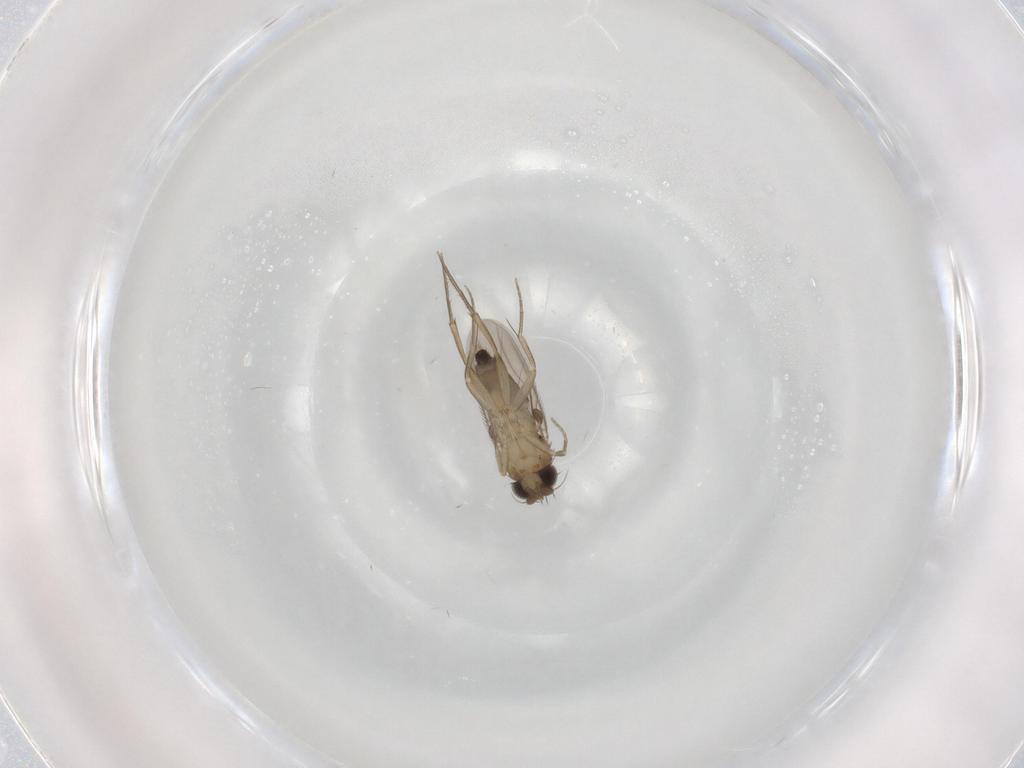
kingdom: Animalia
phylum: Arthropoda
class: Insecta
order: Diptera
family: Phoridae
